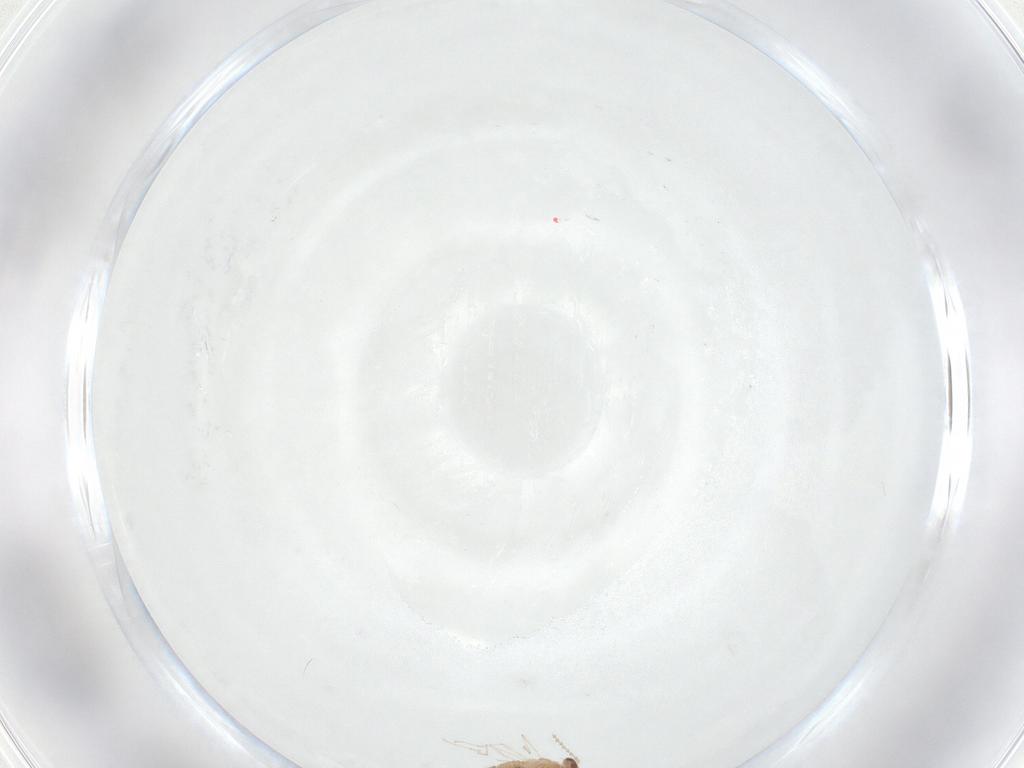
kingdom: Animalia
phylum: Arthropoda
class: Insecta
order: Diptera
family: Cecidomyiidae
